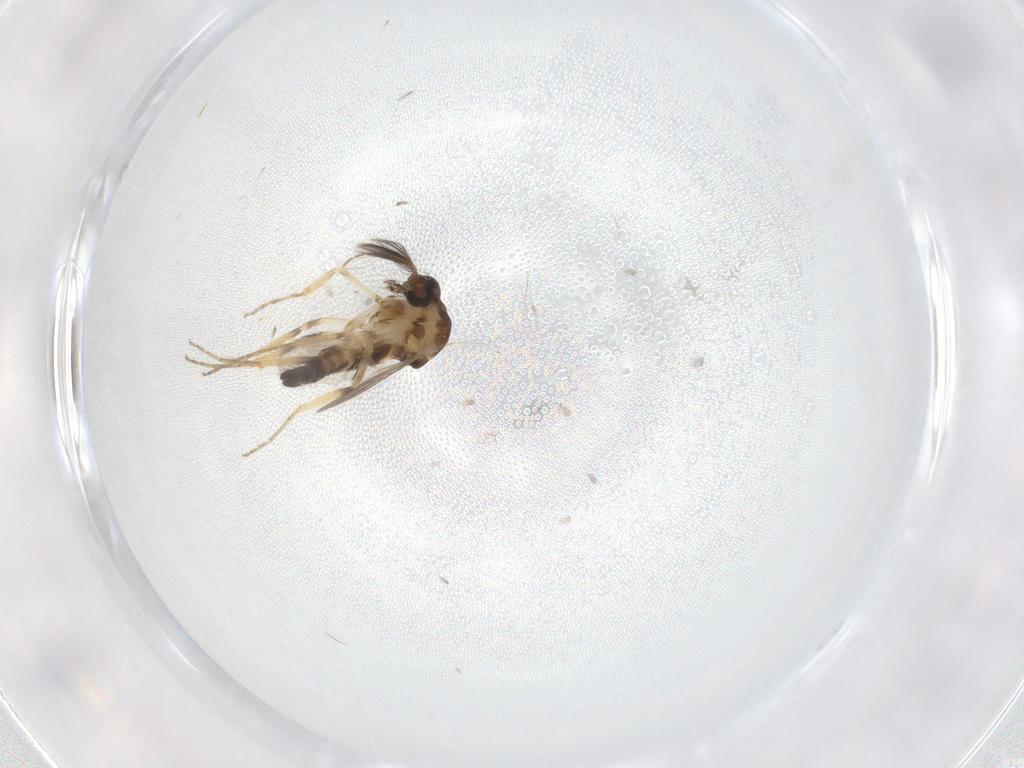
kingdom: Animalia
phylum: Arthropoda
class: Insecta
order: Diptera
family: Ceratopogonidae
